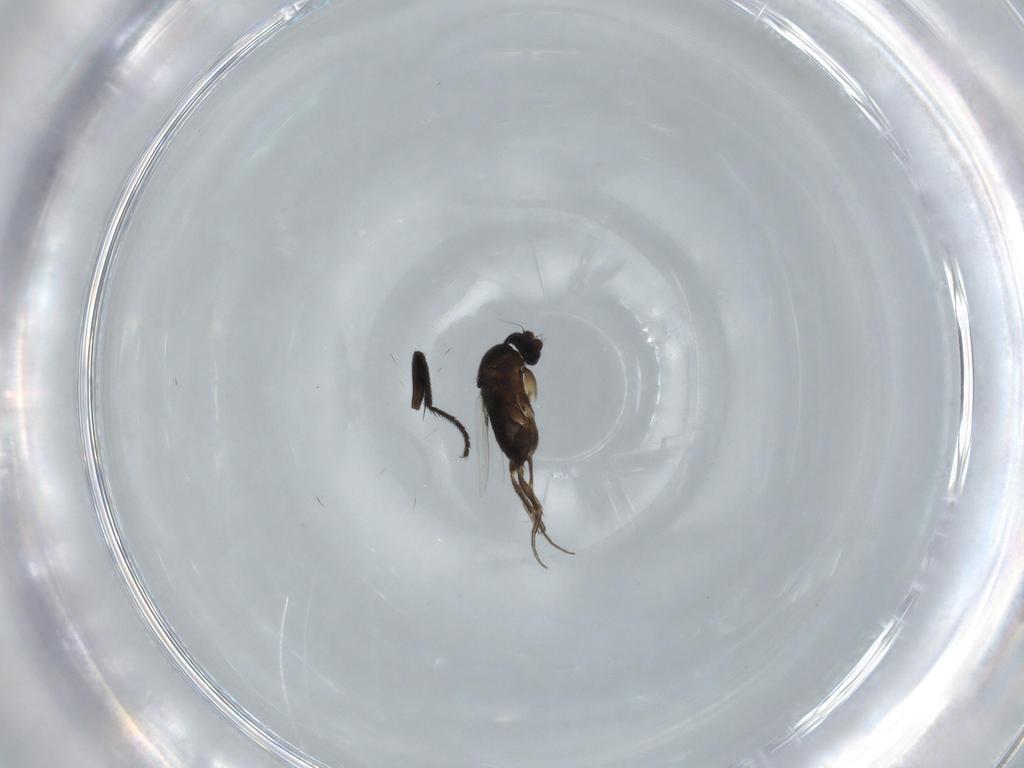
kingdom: Animalia
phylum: Arthropoda
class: Insecta
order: Diptera
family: Phoridae
